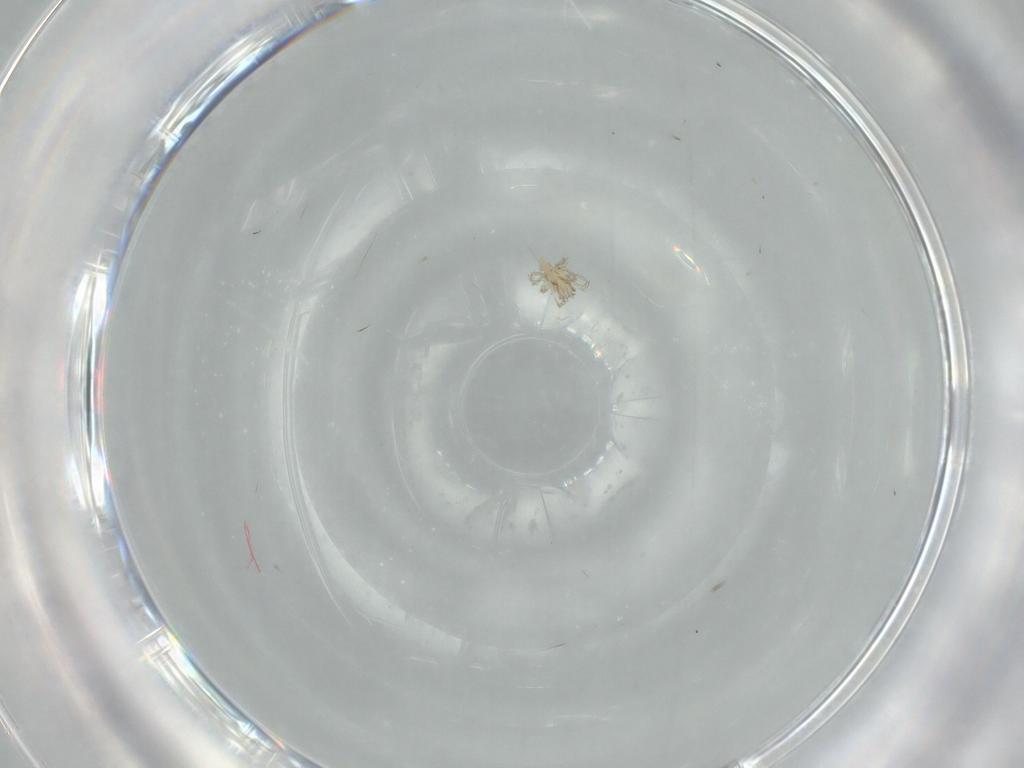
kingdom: Animalia
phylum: Arthropoda
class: Arachnida
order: Trombidiformes
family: Erythraeidae
